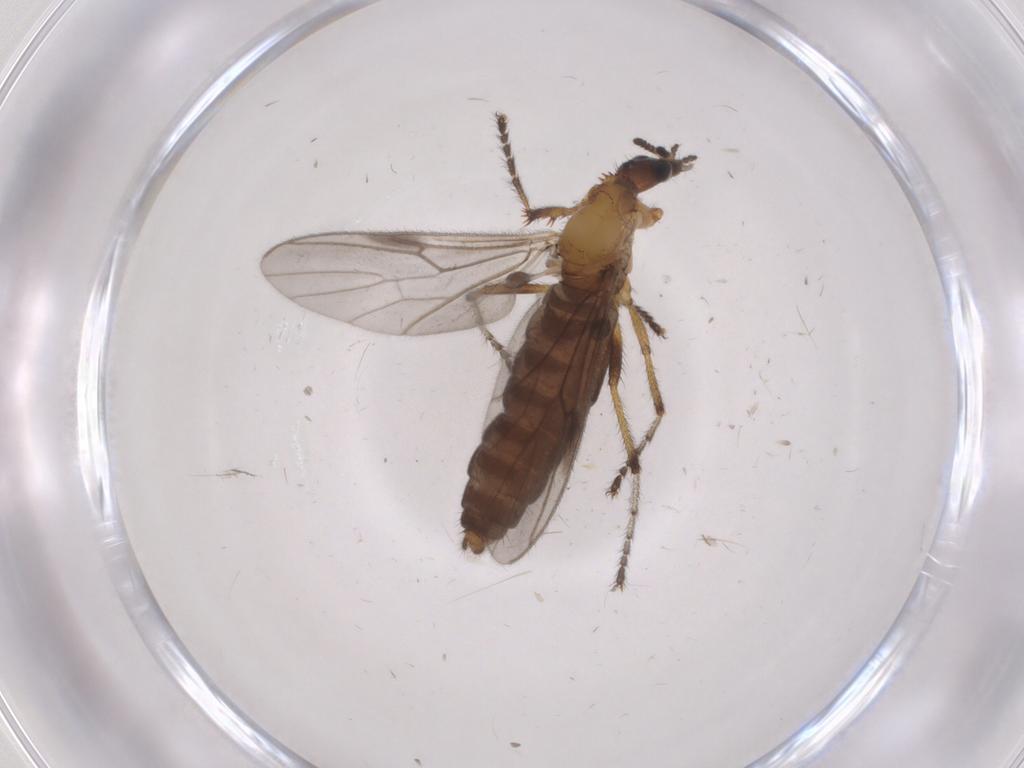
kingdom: Animalia
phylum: Arthropoda
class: Insecta
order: Diptera
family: Bibionidae
